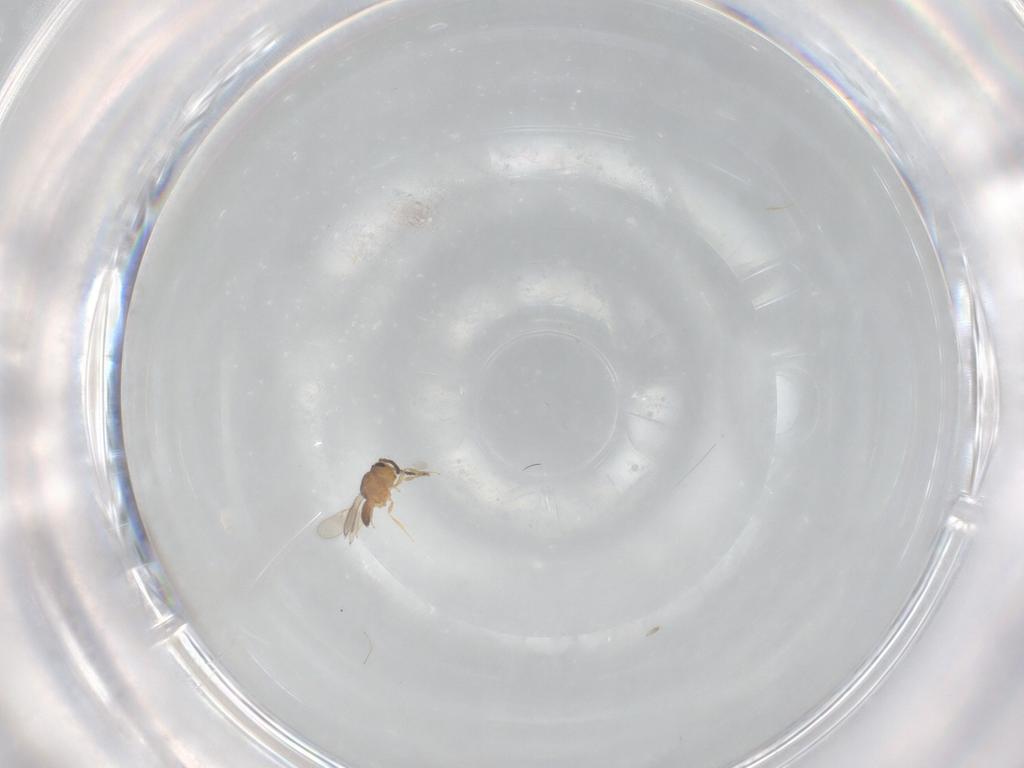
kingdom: Animalia
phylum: Arthropoda
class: Insecta
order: Hymenoptera
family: Scelionidae
